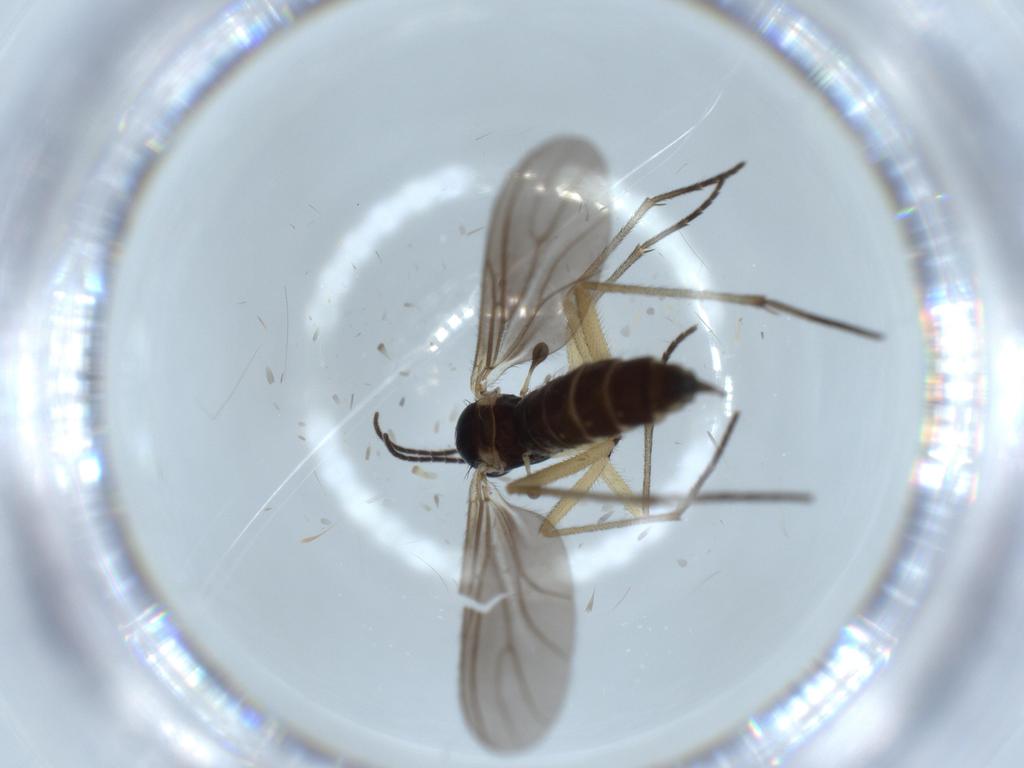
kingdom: Animalia
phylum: Arthropoda
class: Insecta
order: Diptera
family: Sciaridae
